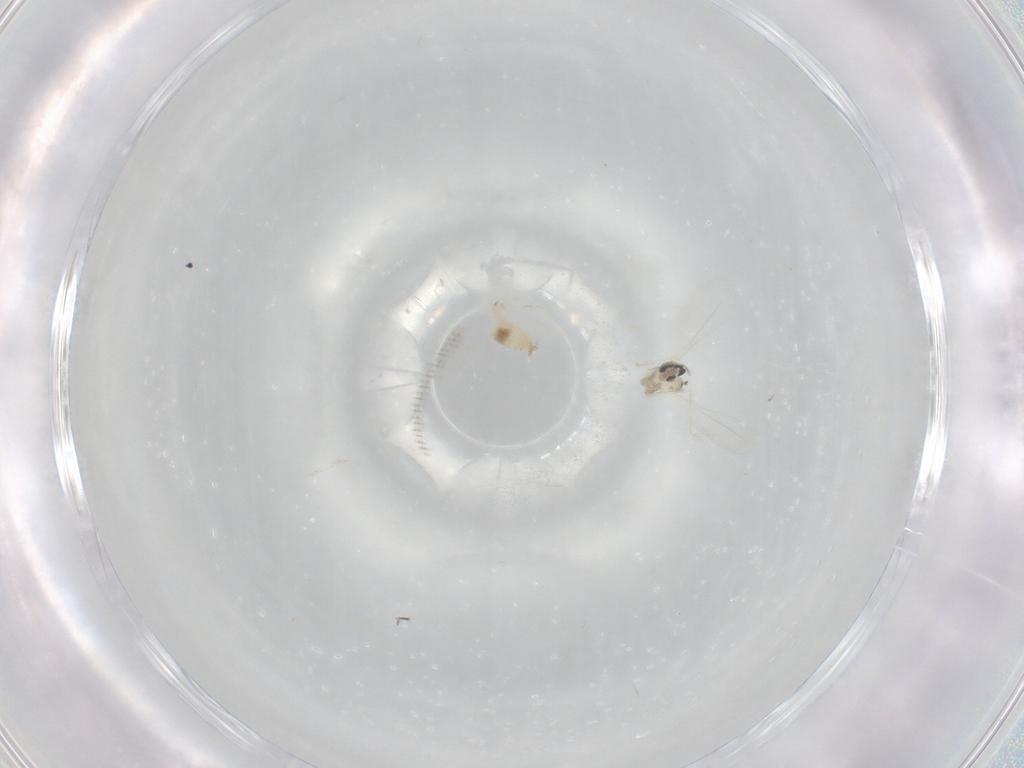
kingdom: Animalia
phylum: Arthropoda
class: Insecta
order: Diptera
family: Cecidomyiidae
